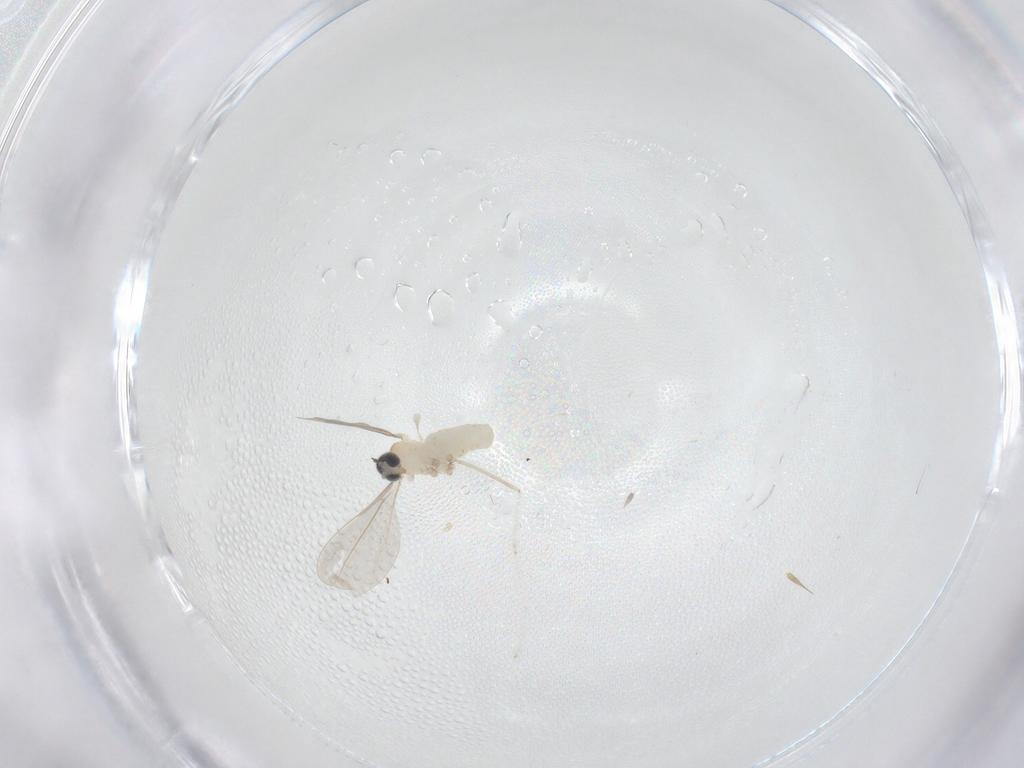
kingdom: Animalia
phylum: Arthropoda
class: Insecta
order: Diptera
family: Cecidomyiidae
